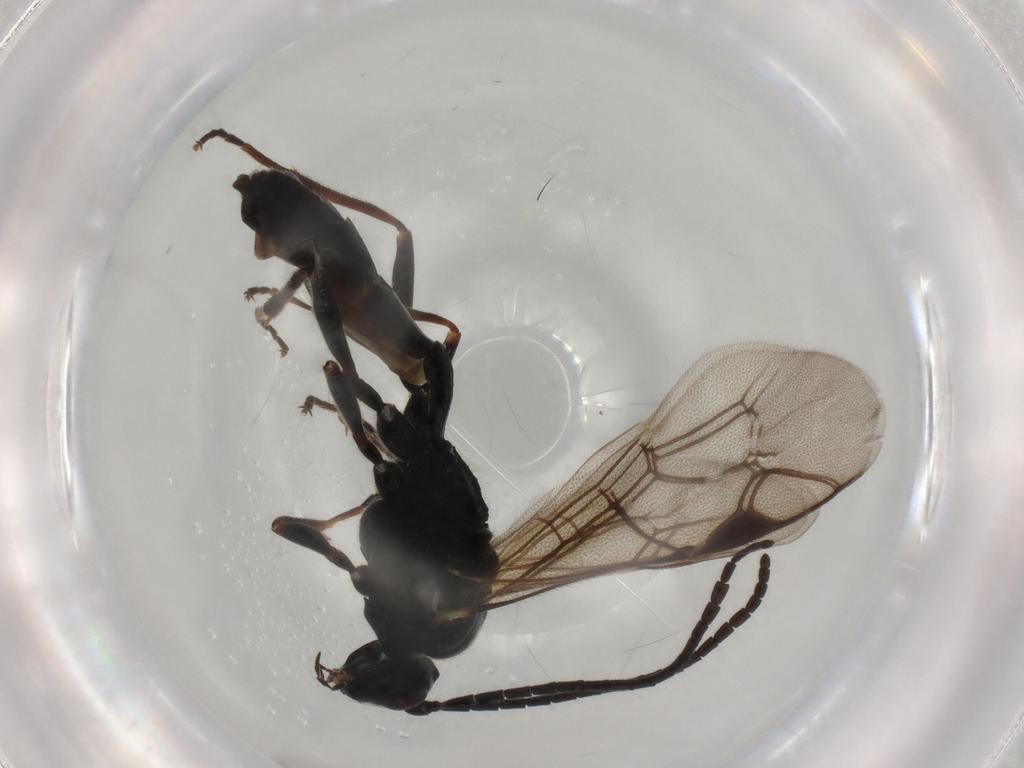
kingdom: Animalia
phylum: Arthropoda
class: Insecta
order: Hymenoptera
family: Ichneumonidae
